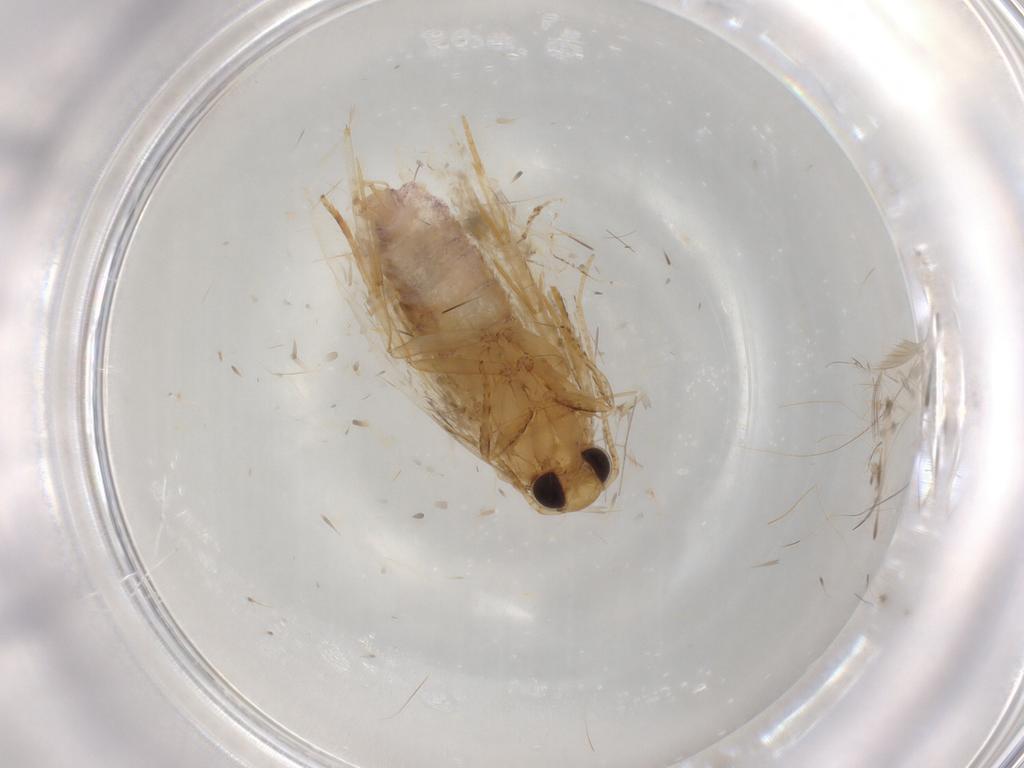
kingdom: Animalia
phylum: Arthropoda
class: Insecta
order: Lepidoptera
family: Depressariidae
